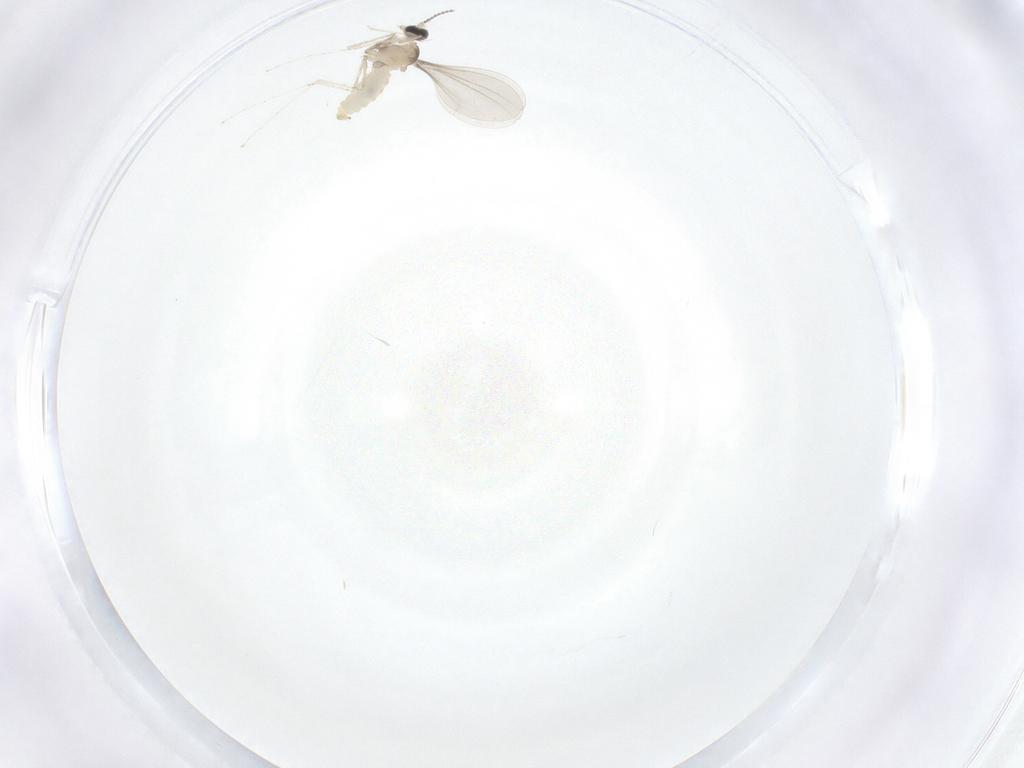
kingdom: Animalia
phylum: Arthropoda
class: Insecta
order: Diptera
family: Cecidomyiidae
